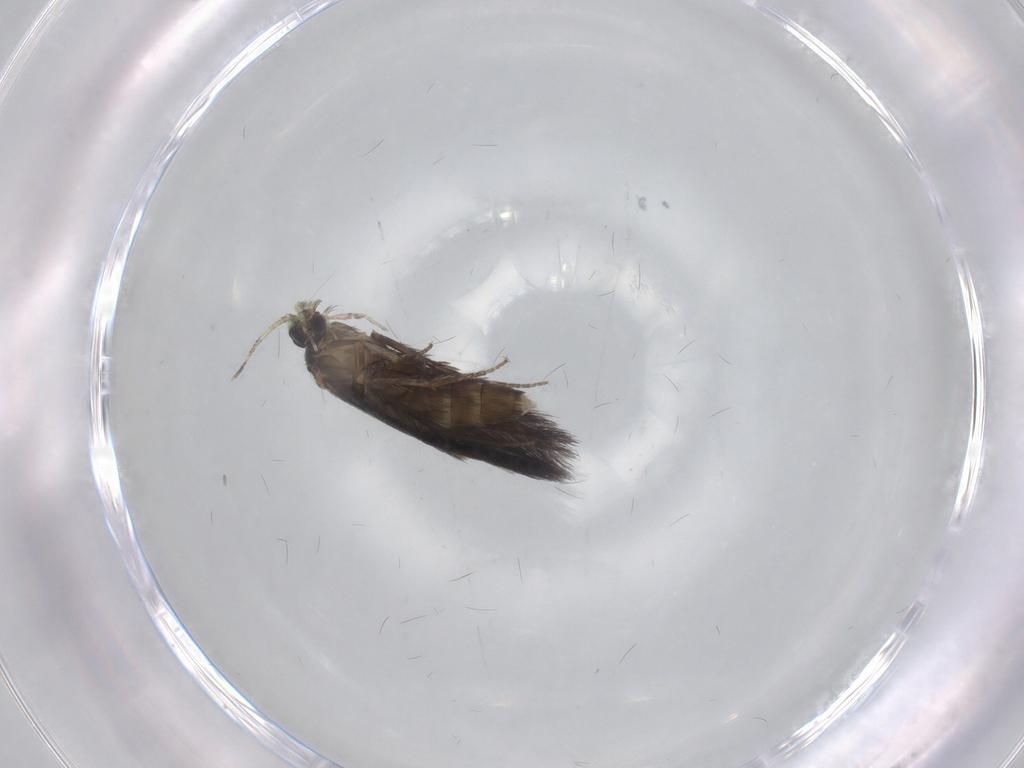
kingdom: Animalia
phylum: Arthropoda
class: Insecta
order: Trichoptera
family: Hydroptilidae
